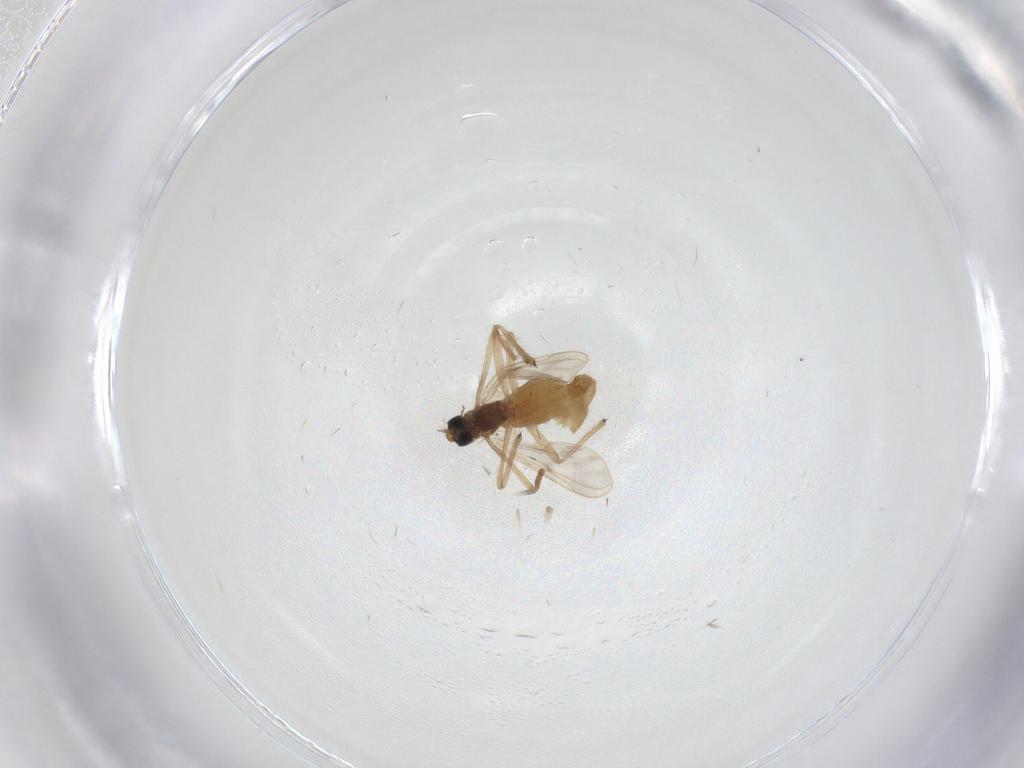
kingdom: Animalia
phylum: Arthropoda
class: Insecta
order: Diptera
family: Chironomidae
